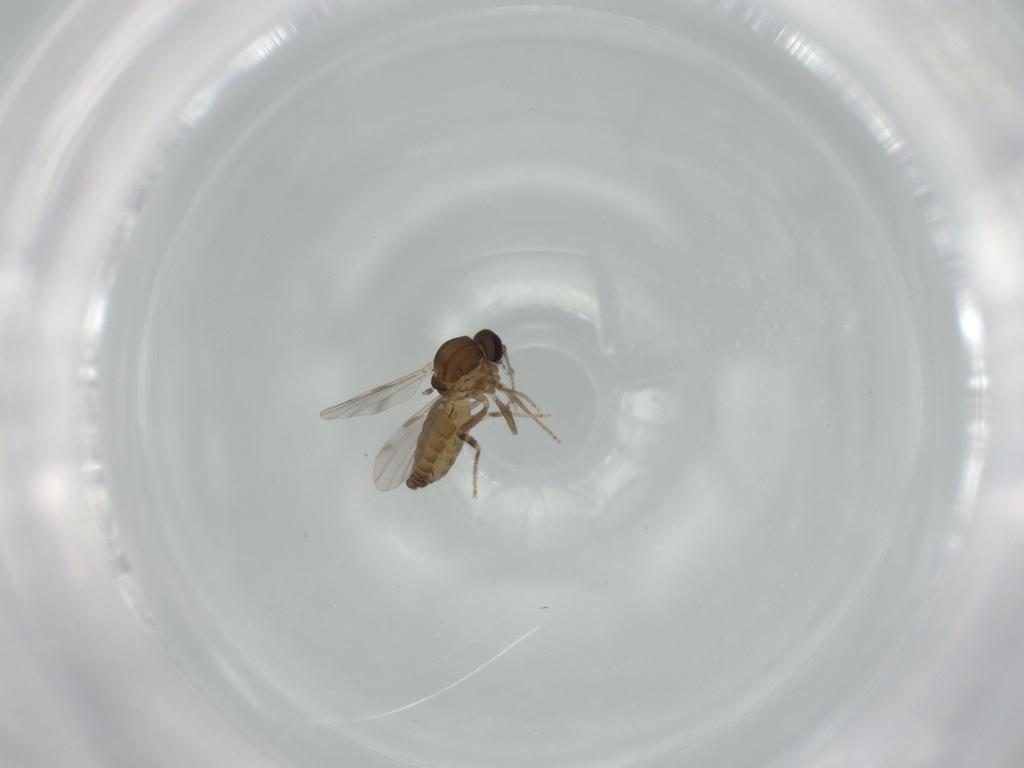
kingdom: Animalia
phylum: Arthropoda
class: Insecta
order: Diptera
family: Ceratopogonidae
